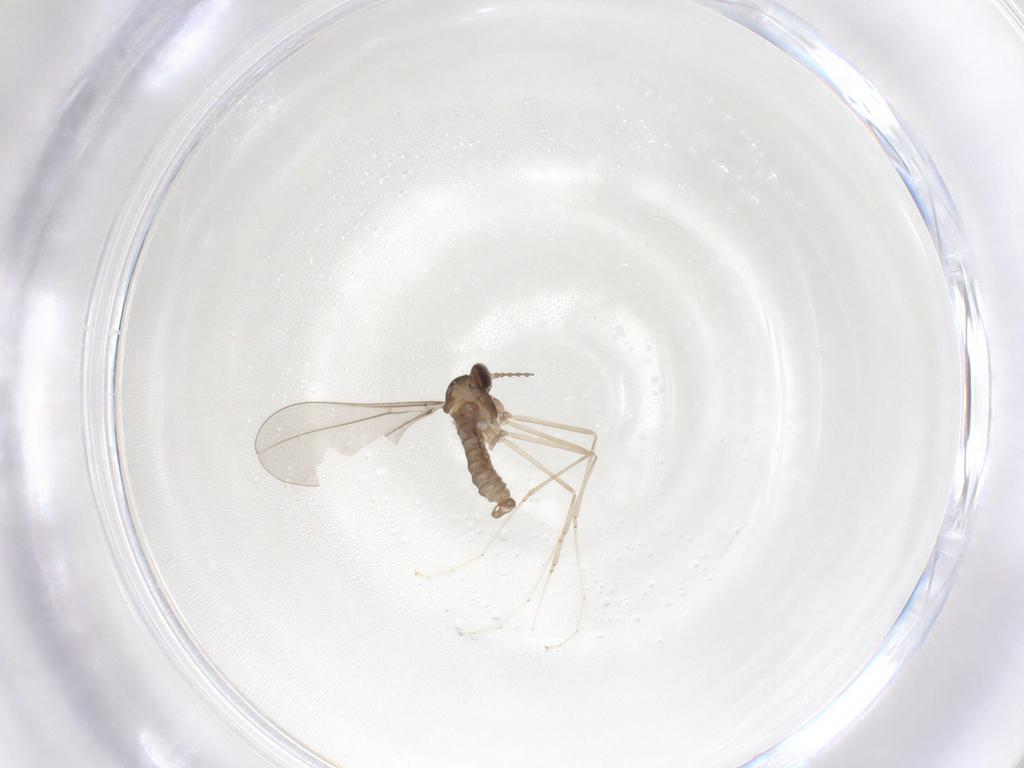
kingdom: Animalia
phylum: Arthropoda
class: Insecta
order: Diptera
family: Cecidomyiidae
